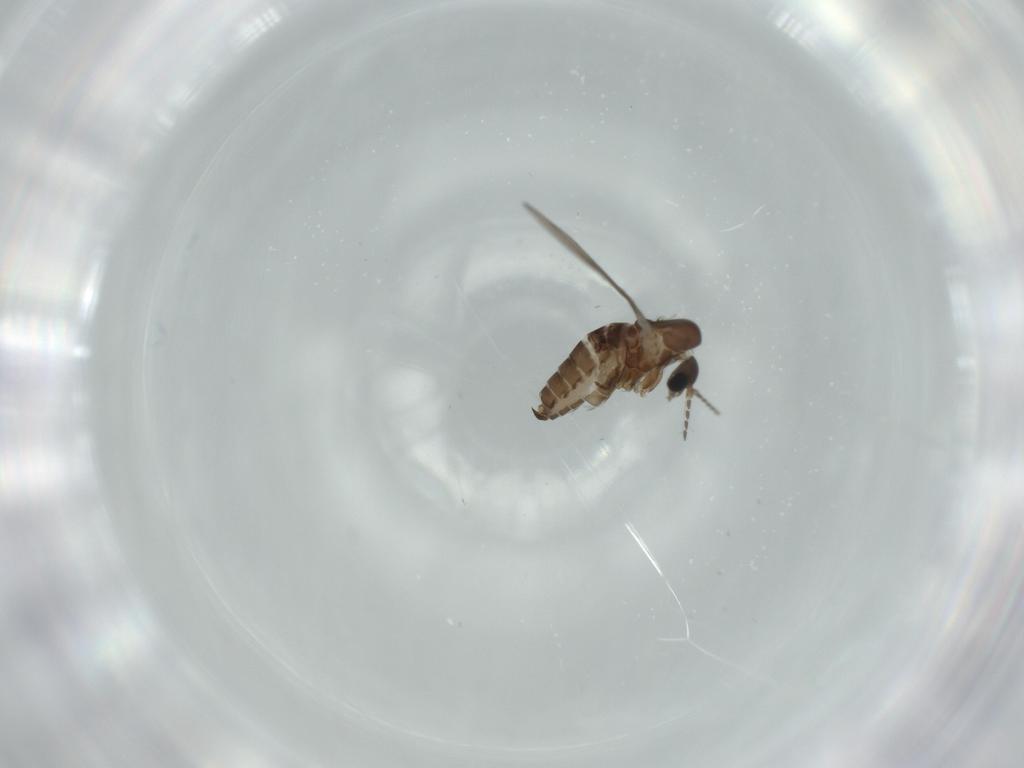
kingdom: Animalia
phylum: Arthropoda
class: Insecta
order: Diptera
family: Psychodidae
